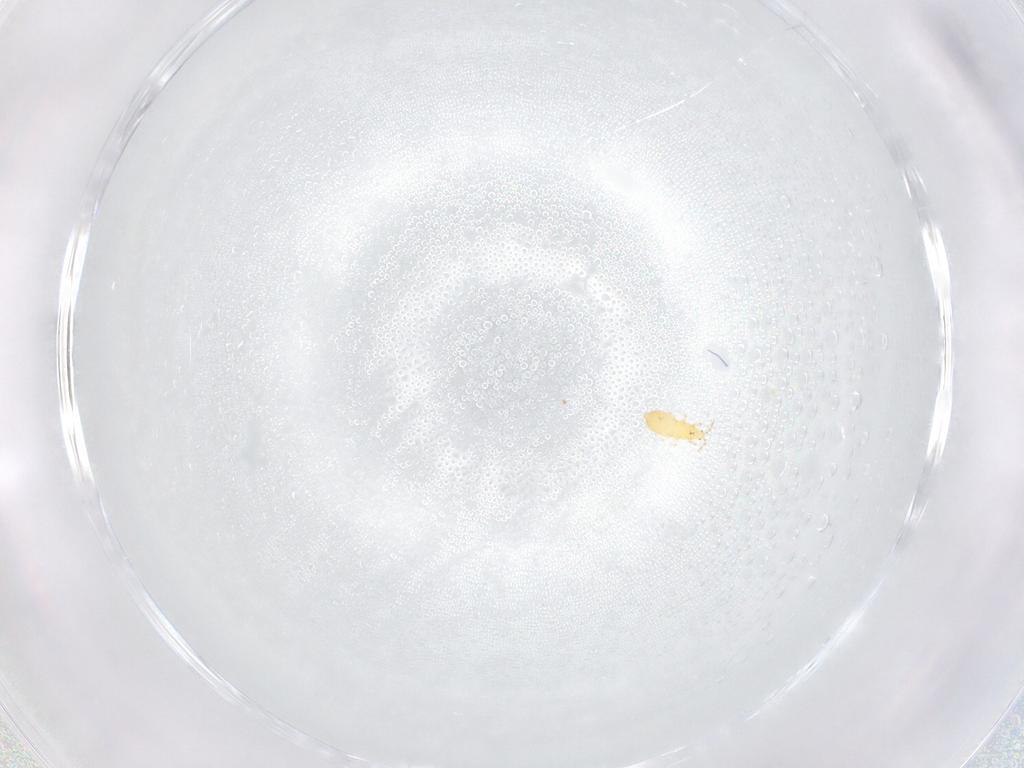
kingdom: Animalia
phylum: Arthropoda
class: Insecta
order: Thysanoptera
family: Thripidae
